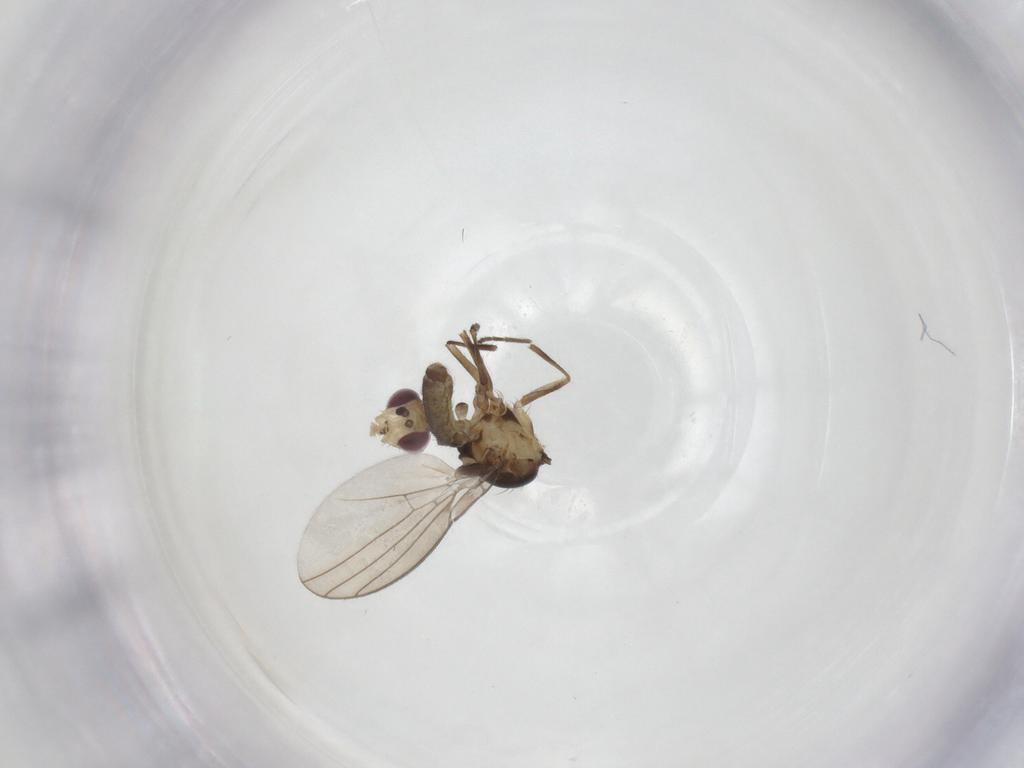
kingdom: Animalia
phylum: Arthropoda
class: Insecta
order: Diptera
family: Agromyzidae
